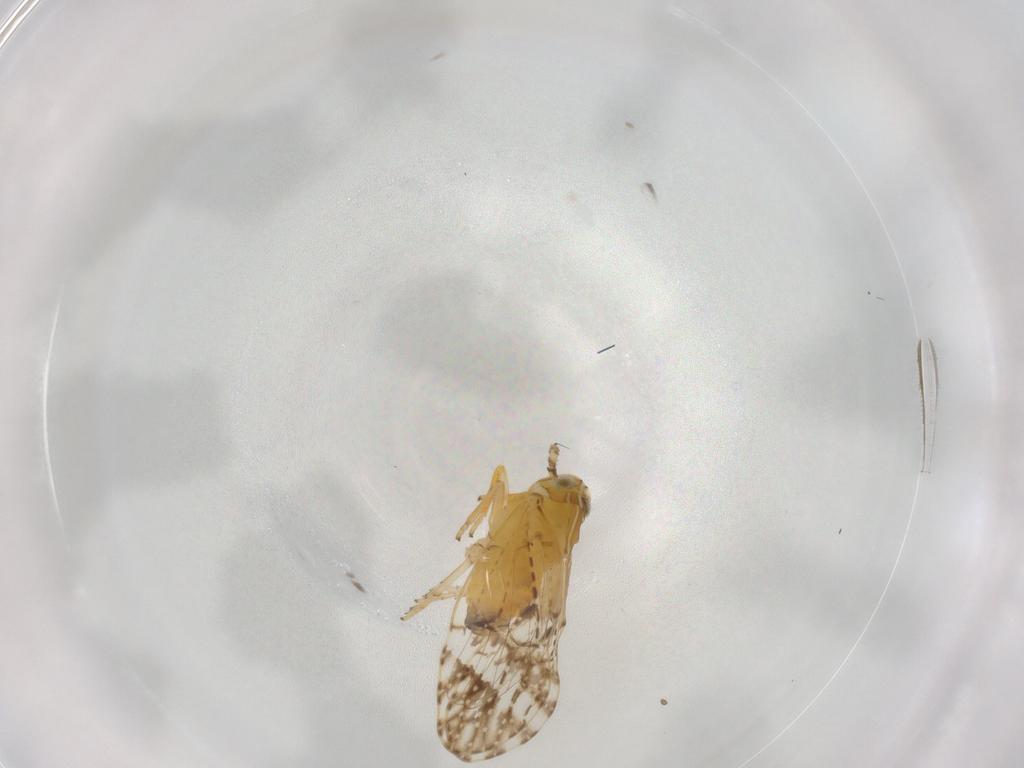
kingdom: Animalia
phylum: Arthropoda
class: Insecta
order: Hemiptera
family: Delphacidae
